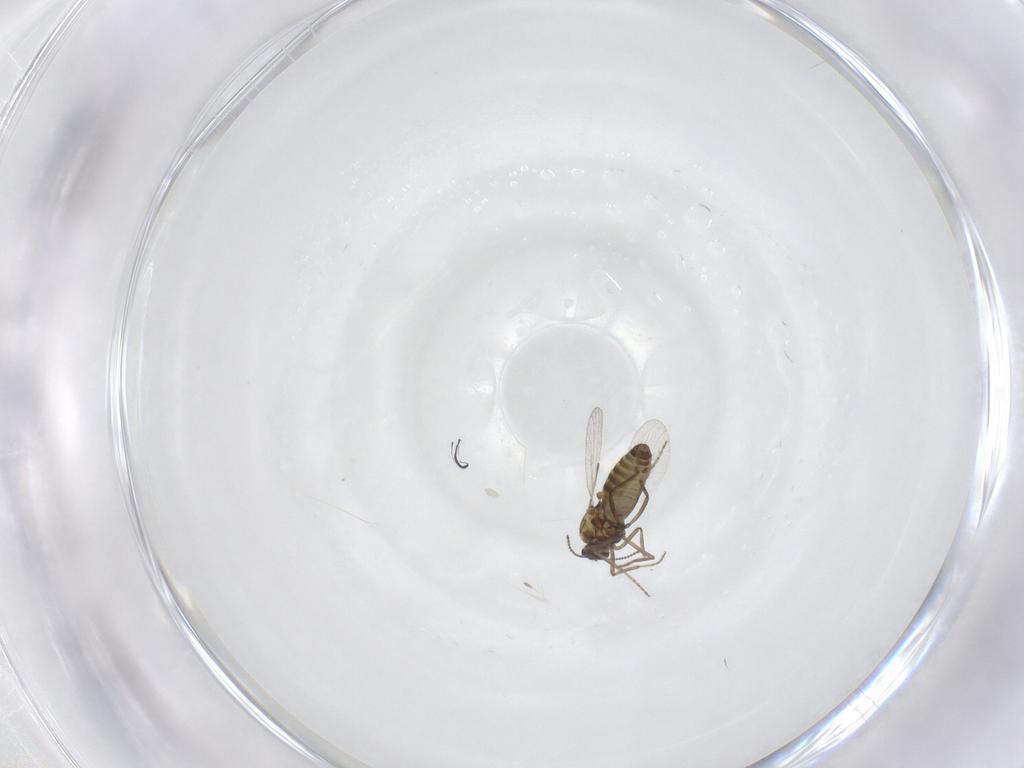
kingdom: Animalia
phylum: Arthropoda
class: Insecta
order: Diptera
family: Ceratopogonidae
